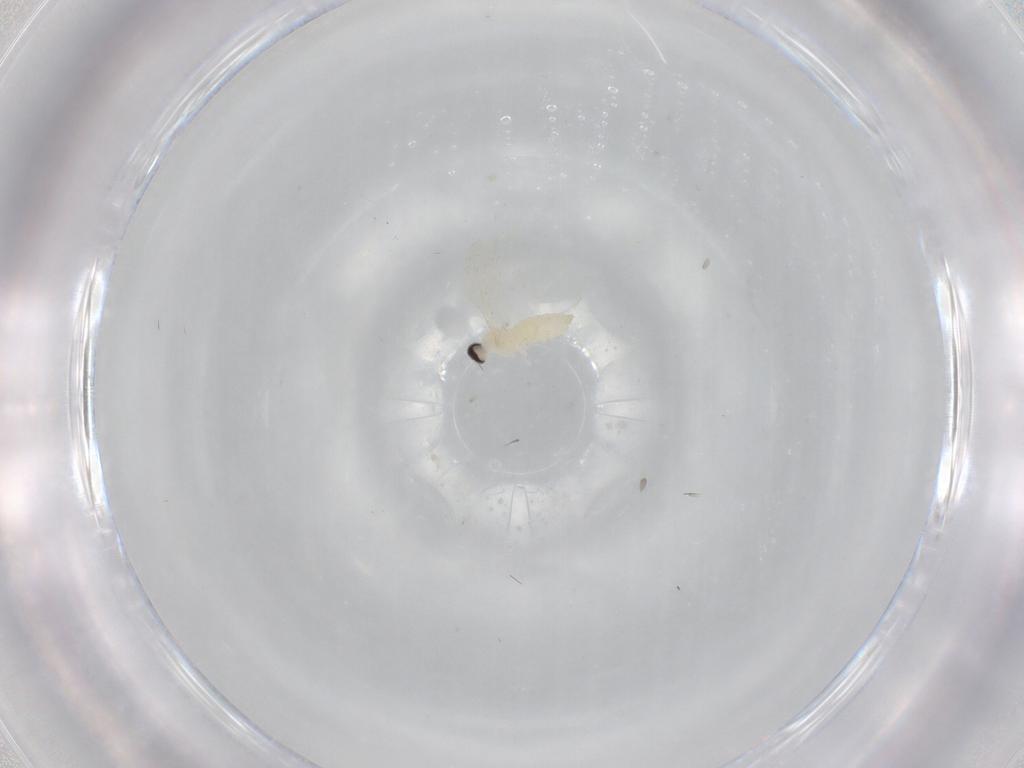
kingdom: Animalia
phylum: Arthropoda
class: Insecta
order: Diptera
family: Cecidomyiidae
